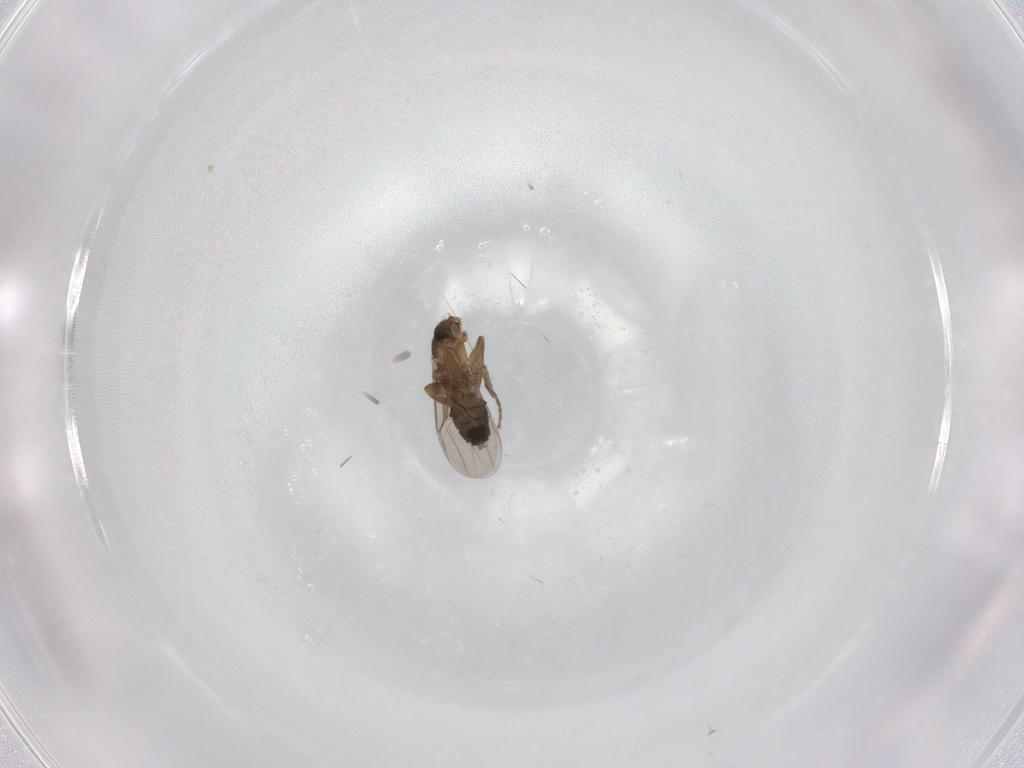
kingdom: Animalia
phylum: Arthropoda
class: Insecta
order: Diptera
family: Phoridae
